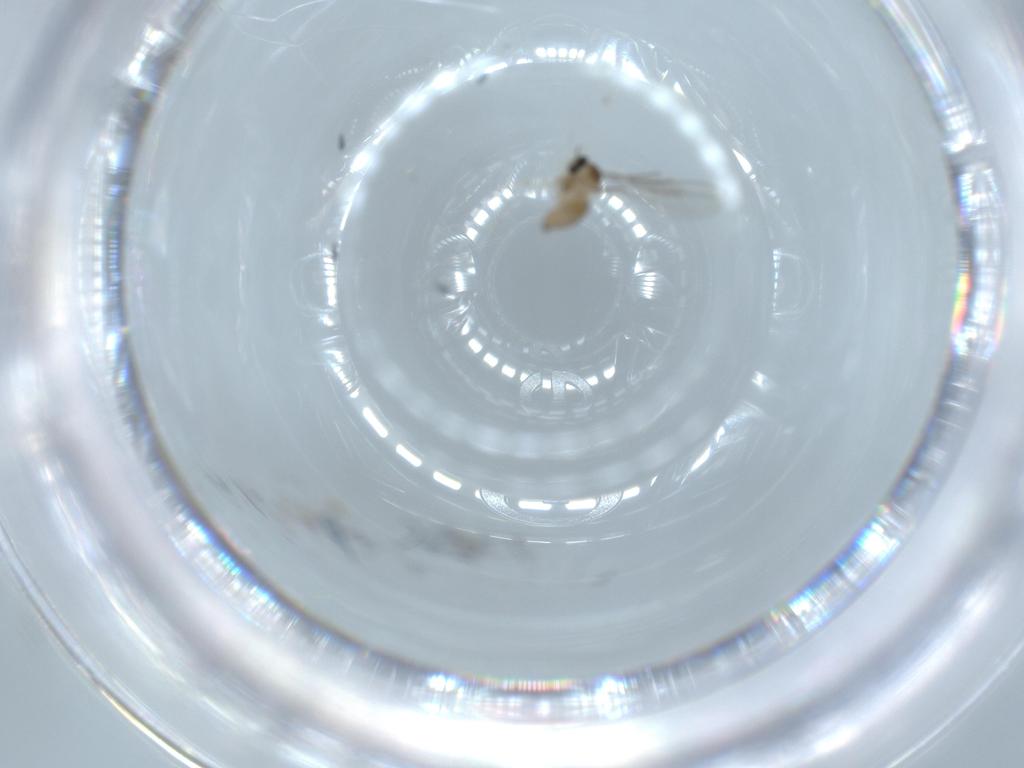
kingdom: Animalia
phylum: Arthropoda
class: Insecta
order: Diptera
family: Cecidomyiidae
